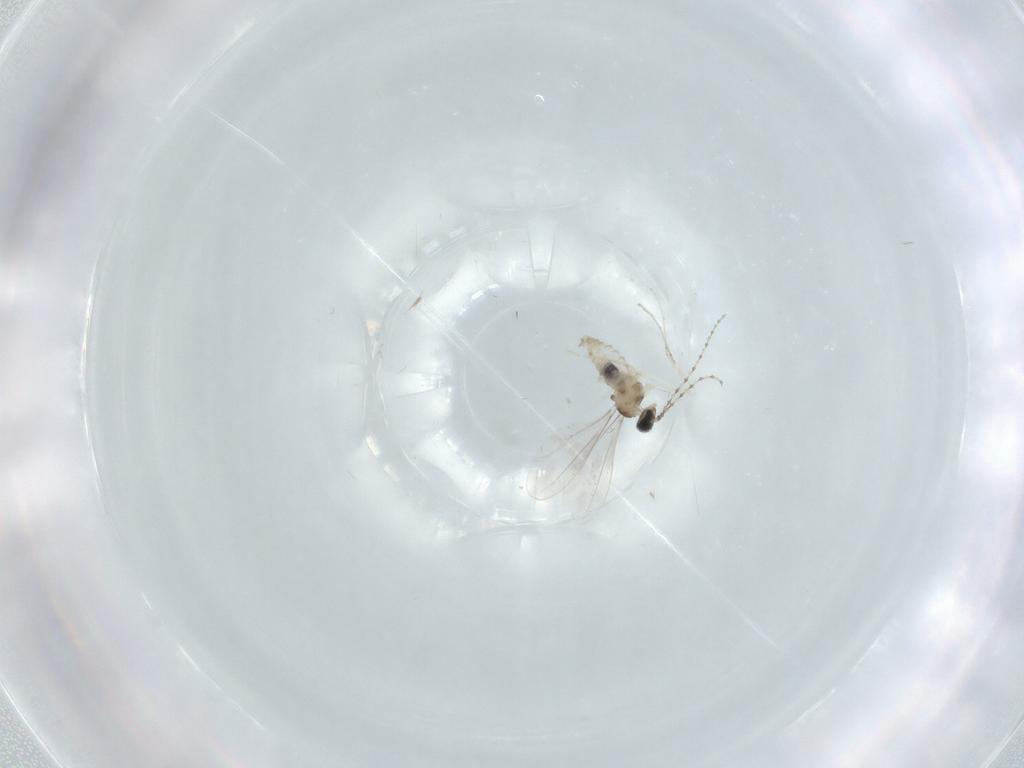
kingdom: Animalia
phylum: Arthropoda
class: Insecta
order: Diptera
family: Cecidomyiidae
